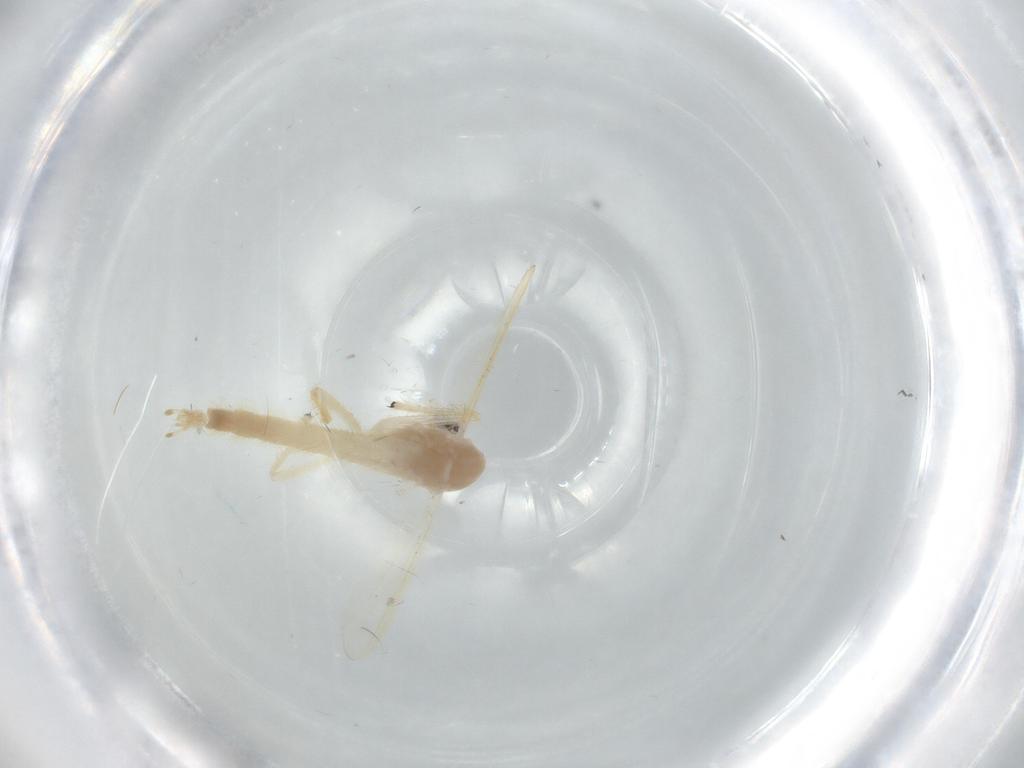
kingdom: Animalia
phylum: Arthropoda
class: Insecta
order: Diptera
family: Chironomidae
